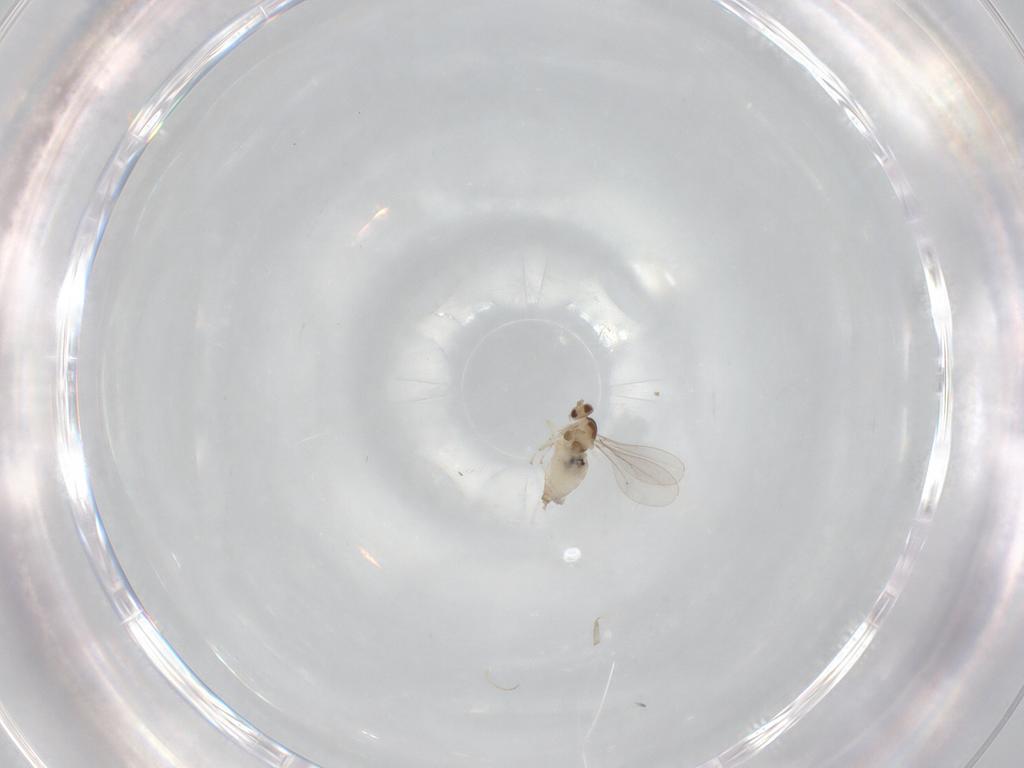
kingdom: Animalia
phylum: Arthropoda
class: Insecta
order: Diptera
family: Cecidomyiidae
